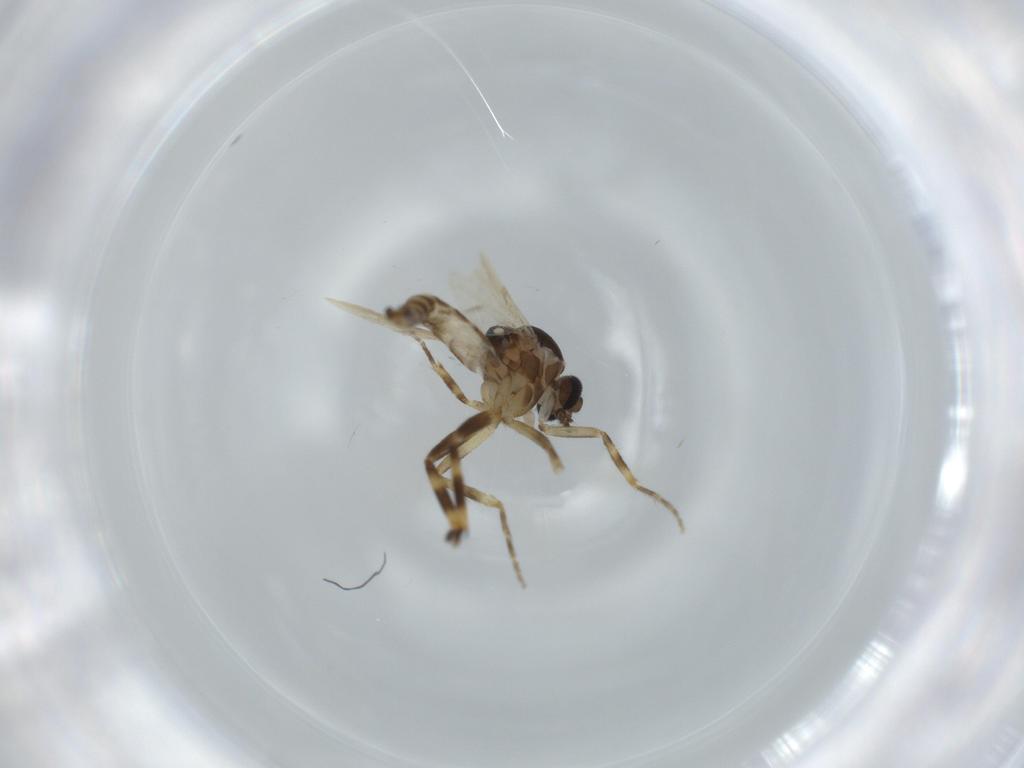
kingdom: Animalia
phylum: Arthropoda
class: Insecta
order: Diptera
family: Ceratopogonidae
